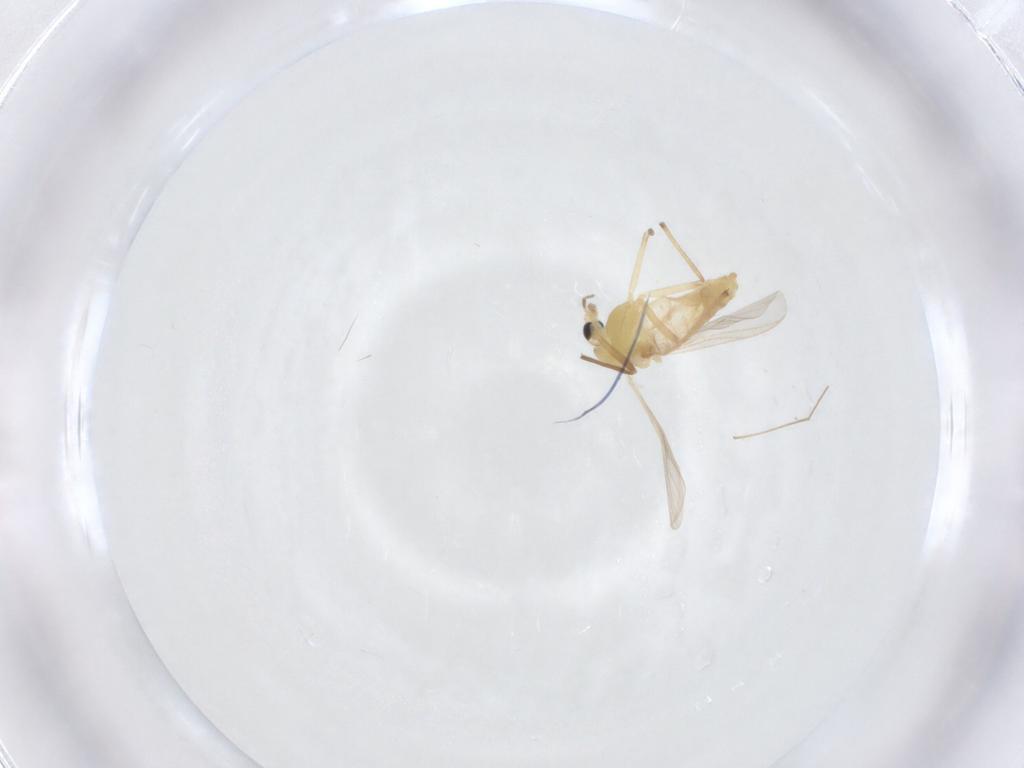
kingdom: Animalia
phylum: Arthropoda
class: Insecta
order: Diptera
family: Chironomidae
